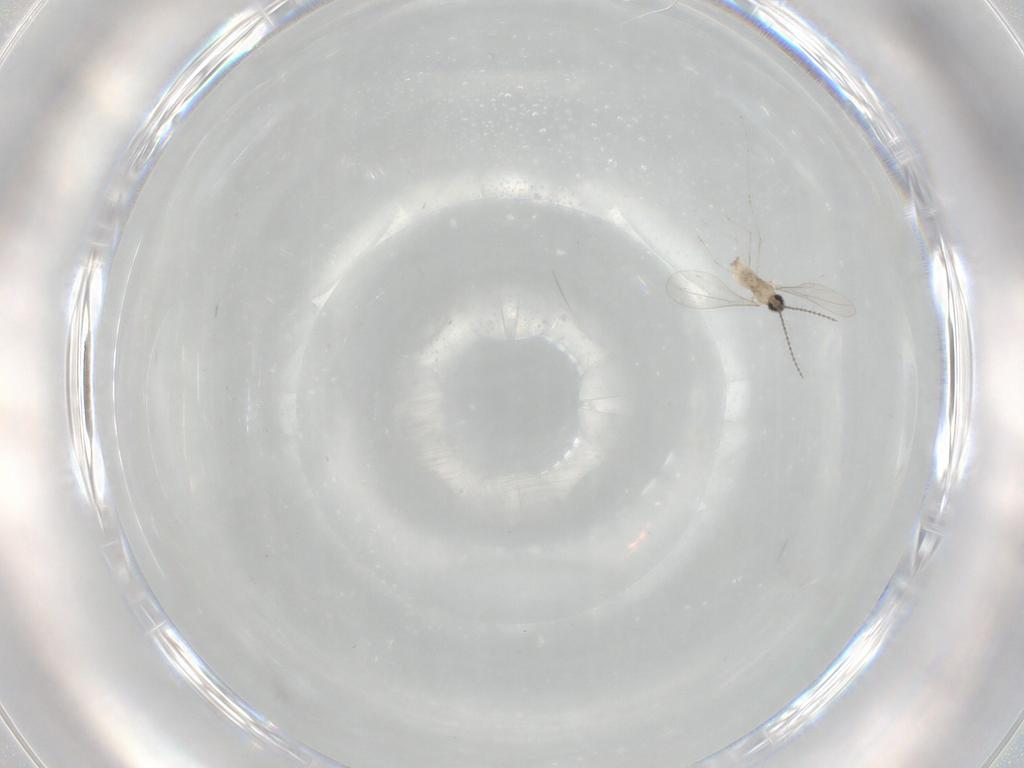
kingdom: Animalia
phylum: Arthropoda
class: Insecta
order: Diptera
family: Cecidomyiidae
